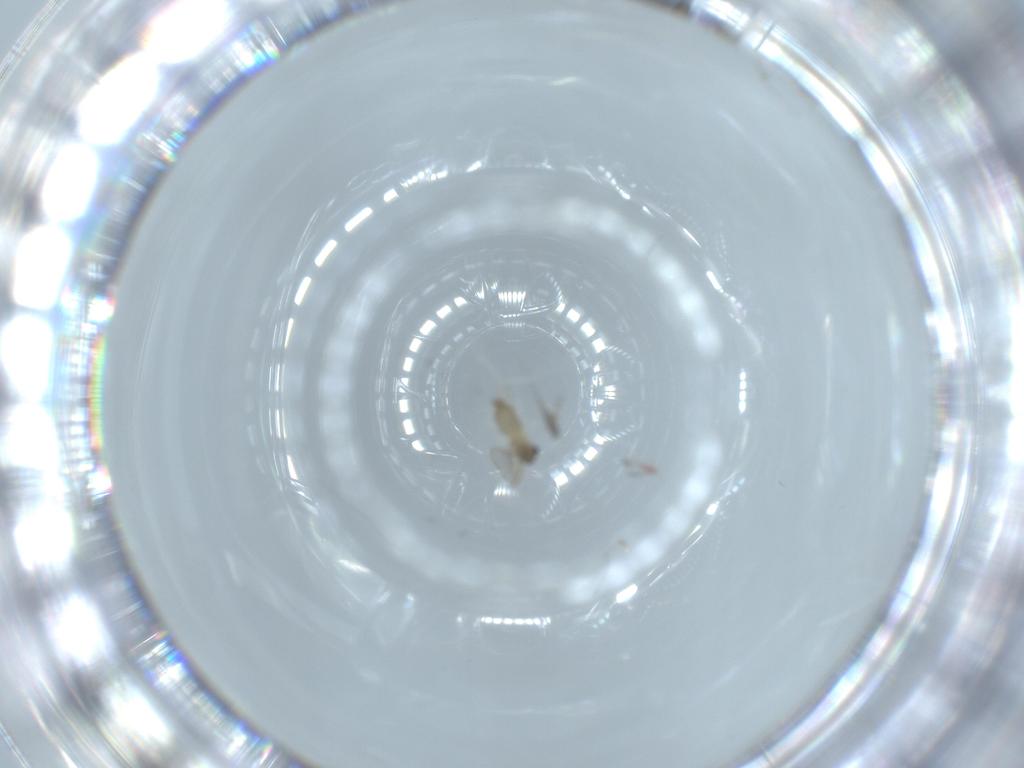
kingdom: Animalia
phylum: Arthropoda
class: Insecta
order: Diptera
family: Cecidomyiidae
